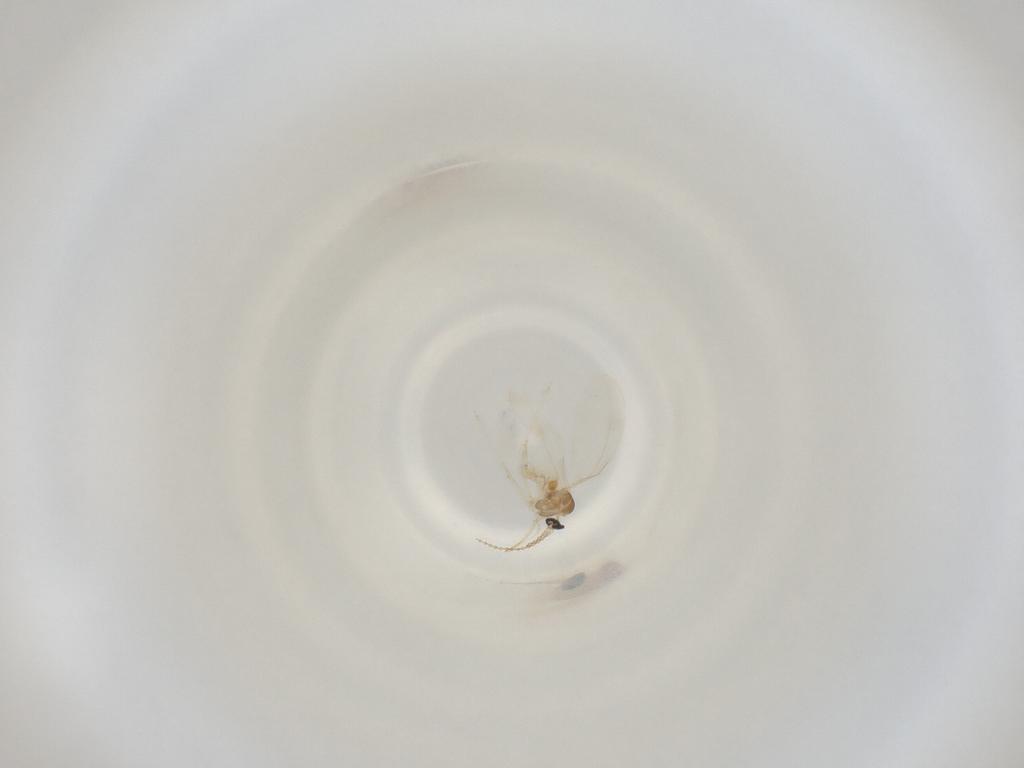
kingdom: Animalia
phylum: Arthropoda
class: Insecta
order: Diptera
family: Cecidomyiidae
